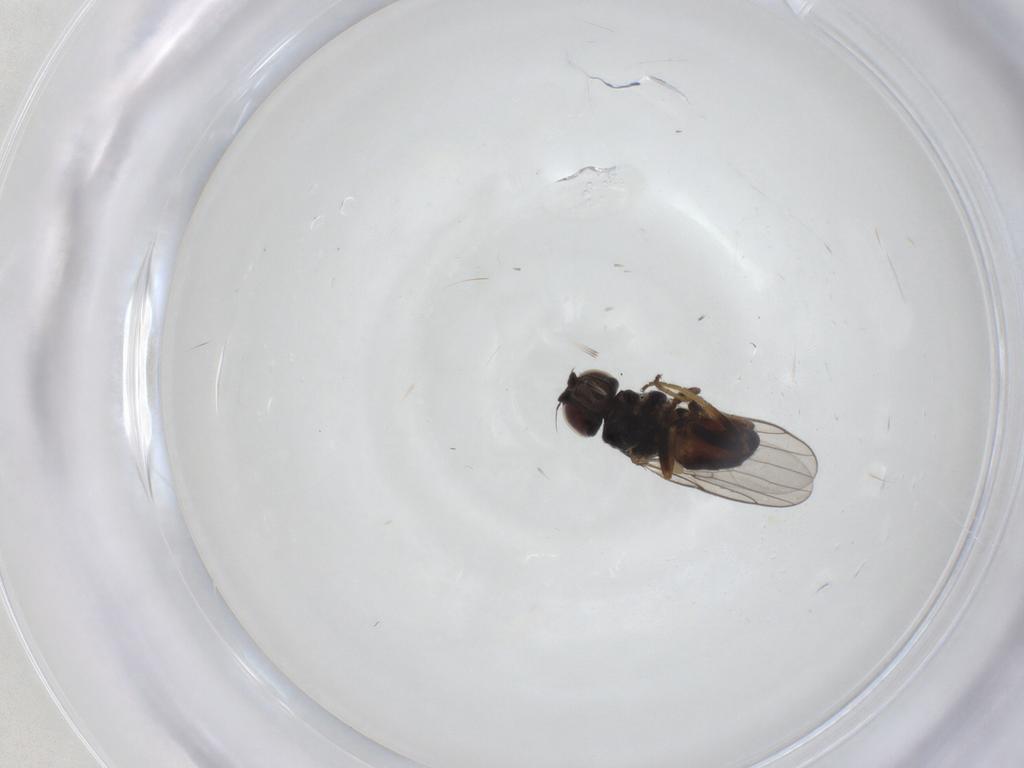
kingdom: Animalia
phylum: Arthropoda
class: Insecta
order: Diptera
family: Chloropidae
